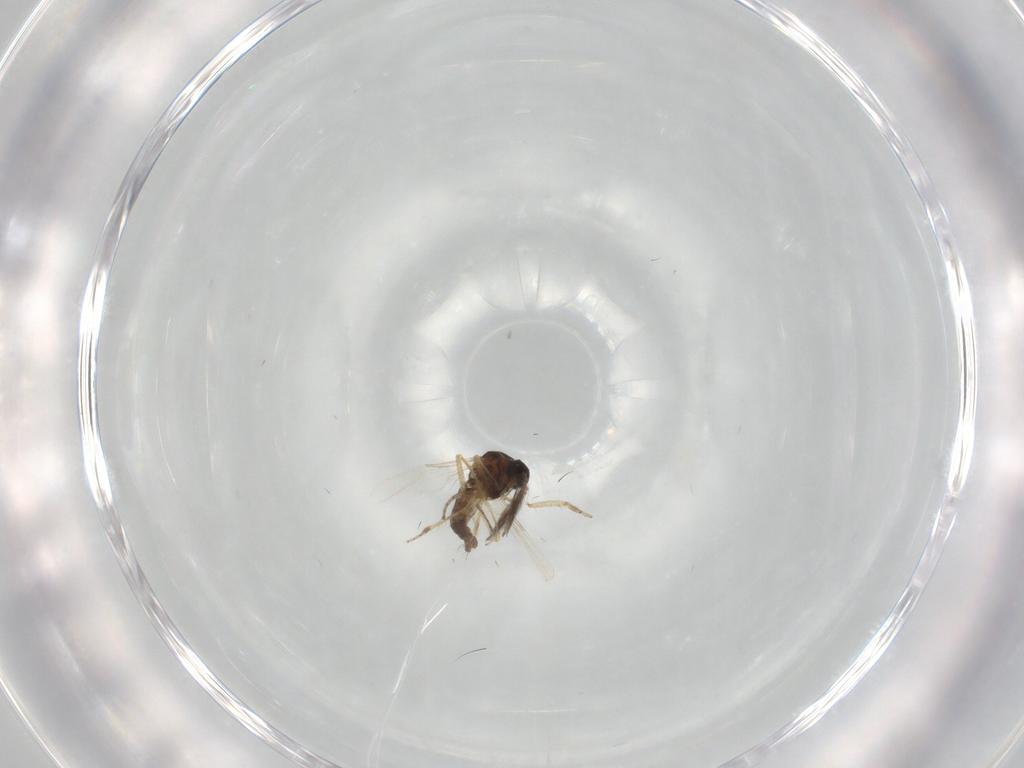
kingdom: Animalia
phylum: Arthropoda
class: Insecta
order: Diptera
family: Ceratopogonidae
